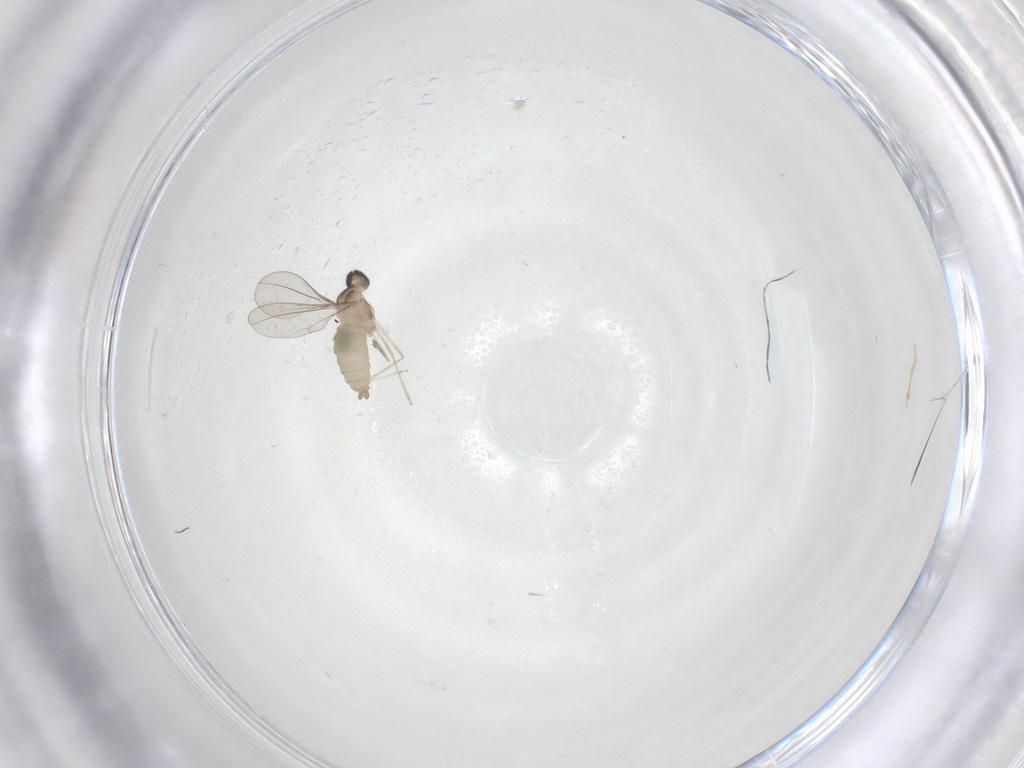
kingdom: Animalia
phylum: Arthropoda
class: Insecta
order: Diptera
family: Cecidomyiidae
